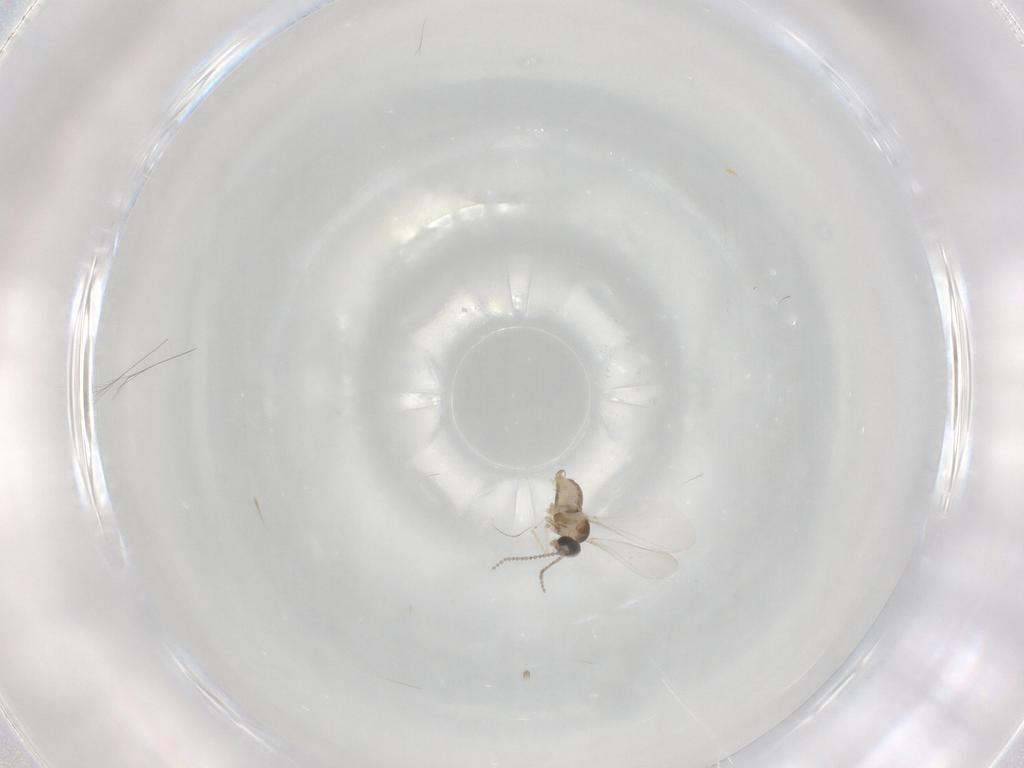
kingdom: Animalia
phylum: Arthropoda
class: Insecta
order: Diptera
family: Cecidomyiidae
